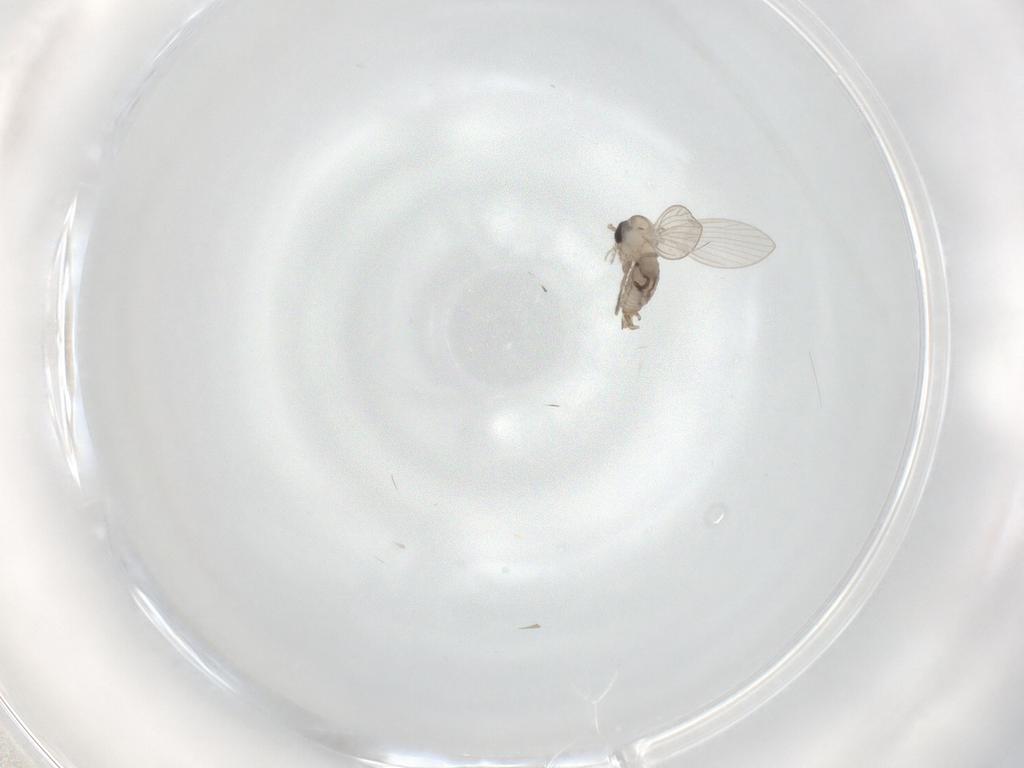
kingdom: Animalia
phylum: Arthropoda
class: Insecta
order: Diptera
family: Psychodidae
